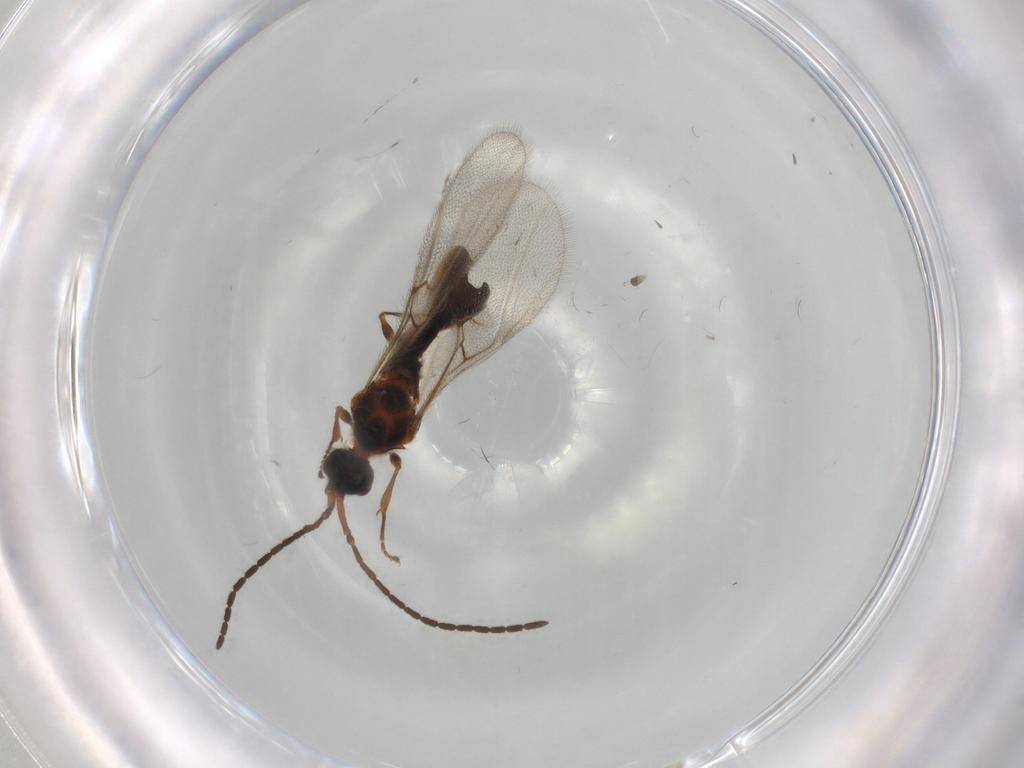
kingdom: Animalia
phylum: Arthropoda
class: Insecta
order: Hymenoptera
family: Diapriidae
